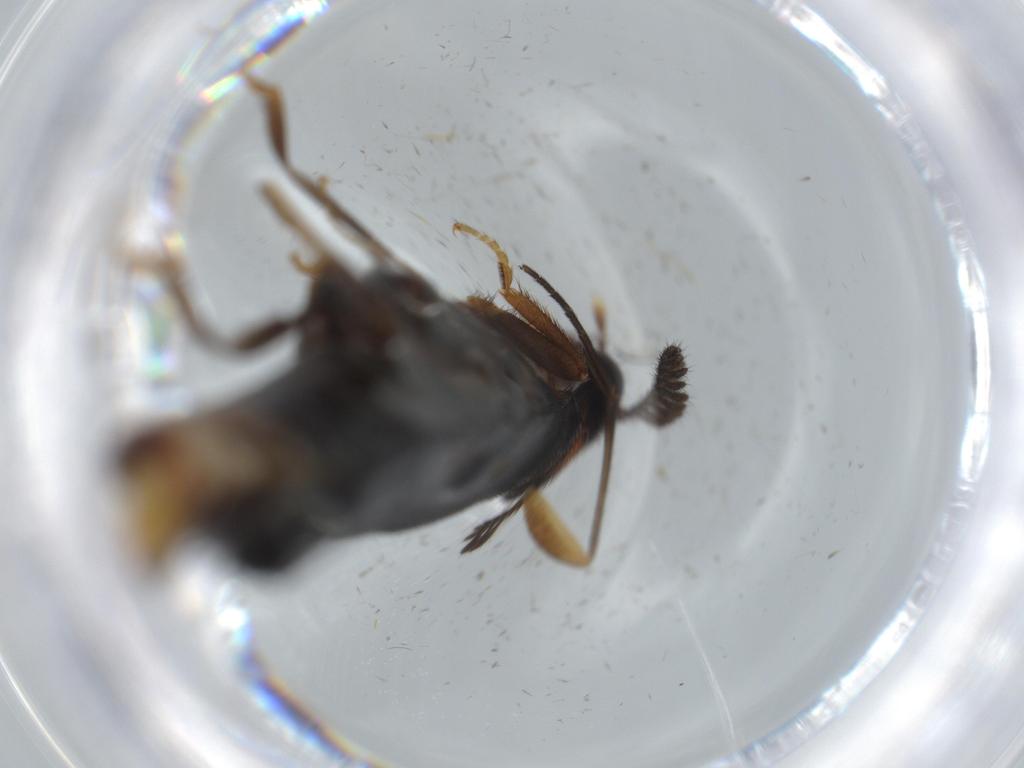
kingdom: Animalia
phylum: Arthropoda
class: Insecta
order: Coleoptera
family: Phengodidae
